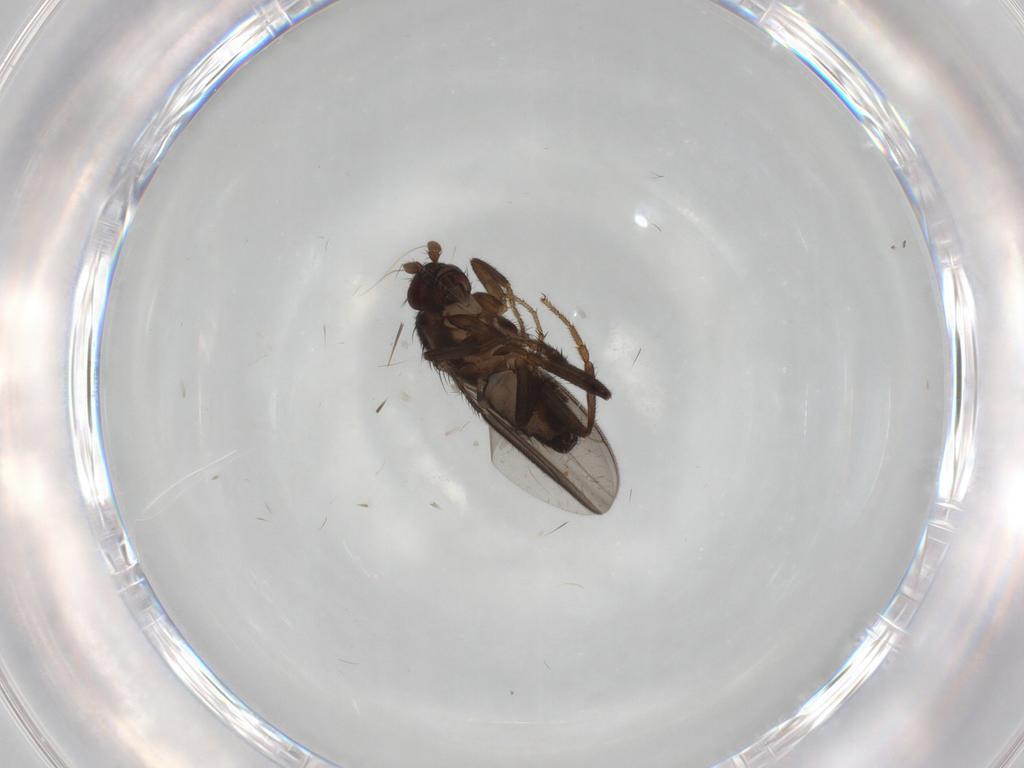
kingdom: Animalia
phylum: Arthropoda
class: Insecta
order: Diptera
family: Sphaeroceridae
